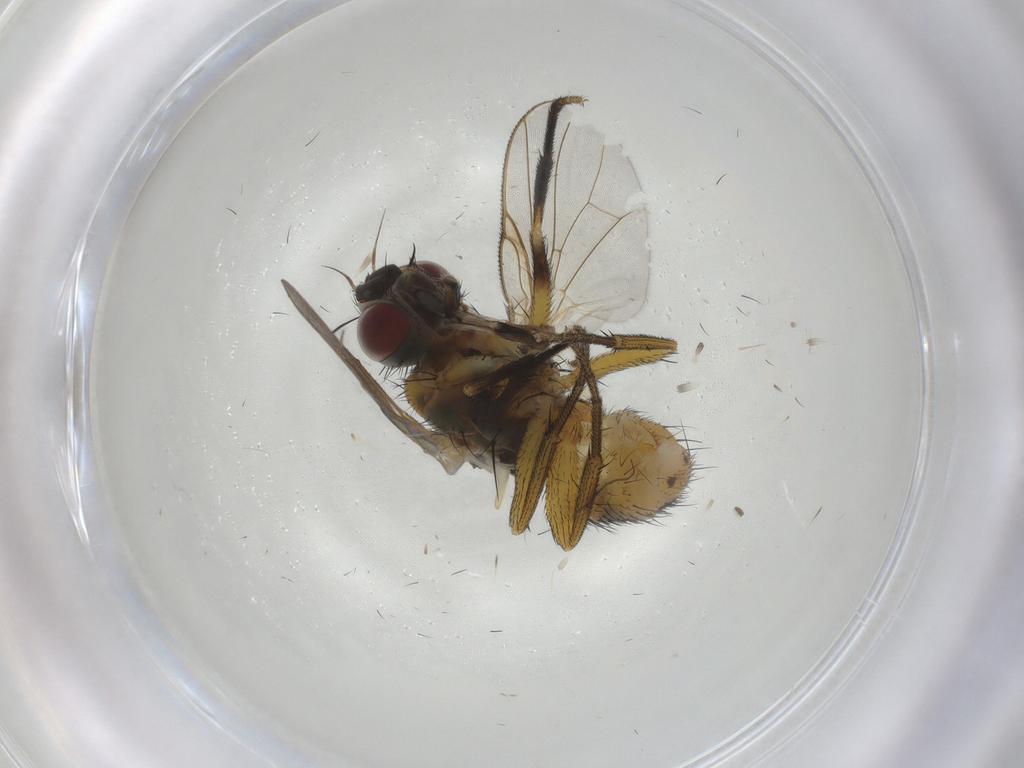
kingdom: Animalia
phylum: Arthropoda
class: Insecta
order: Diptera
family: Muscidae
